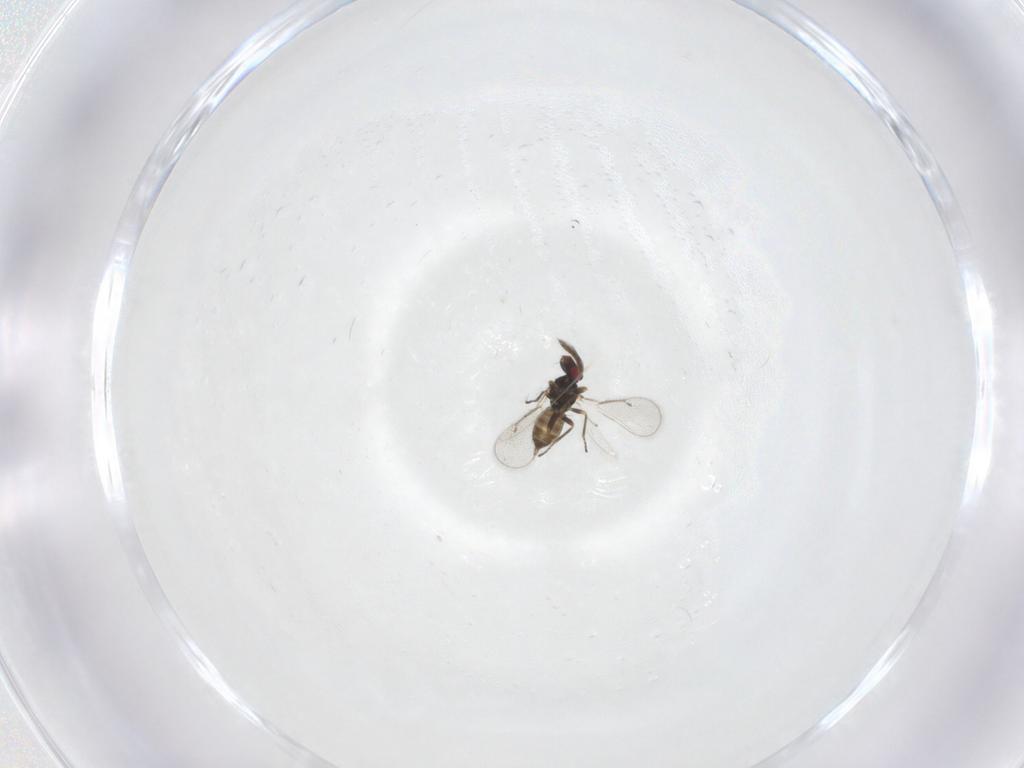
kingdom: Animalia
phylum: Arthropoda
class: Insecta
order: Hymenoptera
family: Eulophidae
